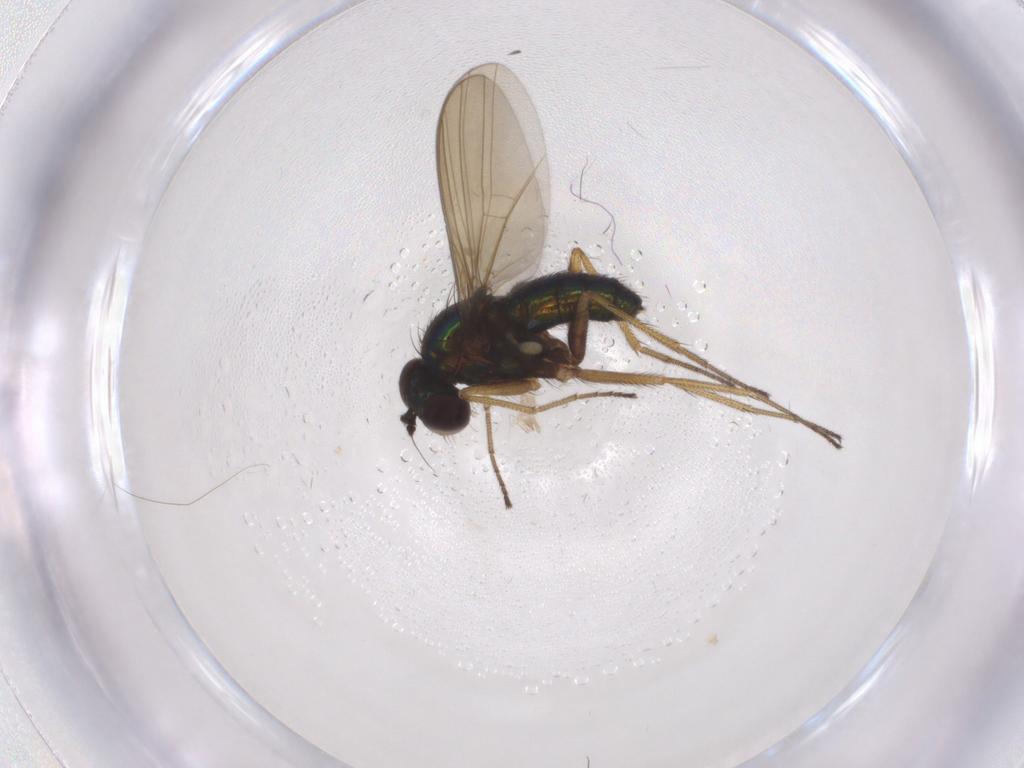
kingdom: Animalia
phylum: Arthropoda
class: Insecta
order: Diptera
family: Dolichopodidae
